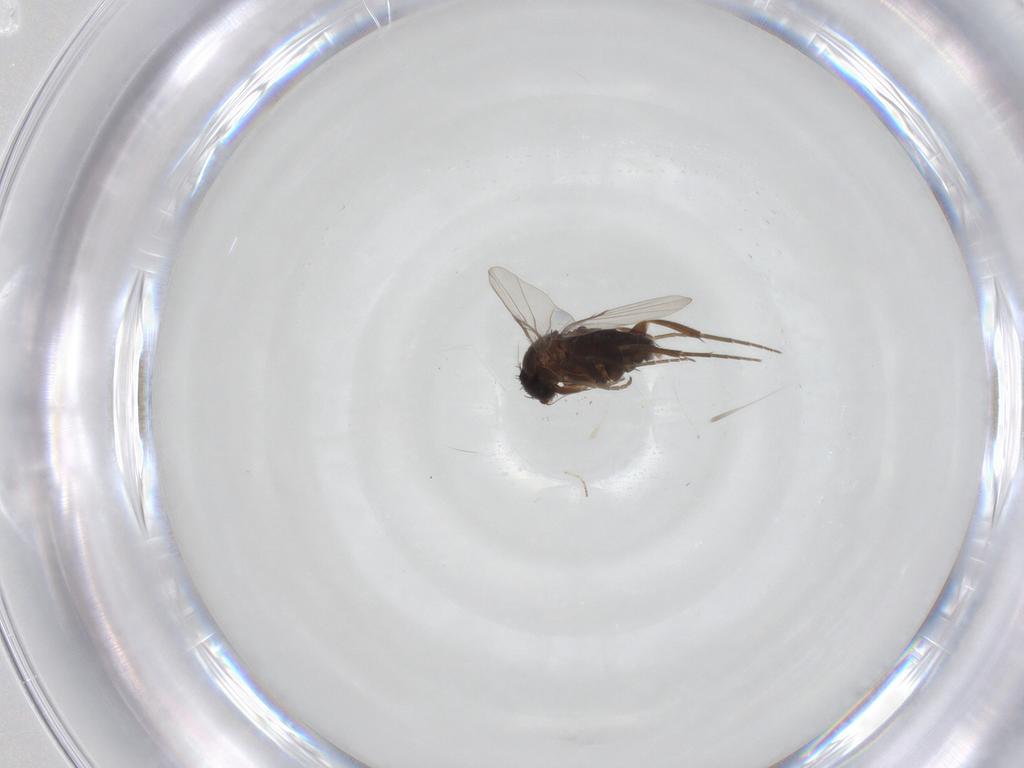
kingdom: Animalia
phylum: Arthropoda
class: Insecta
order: Diptera
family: Phoridae
